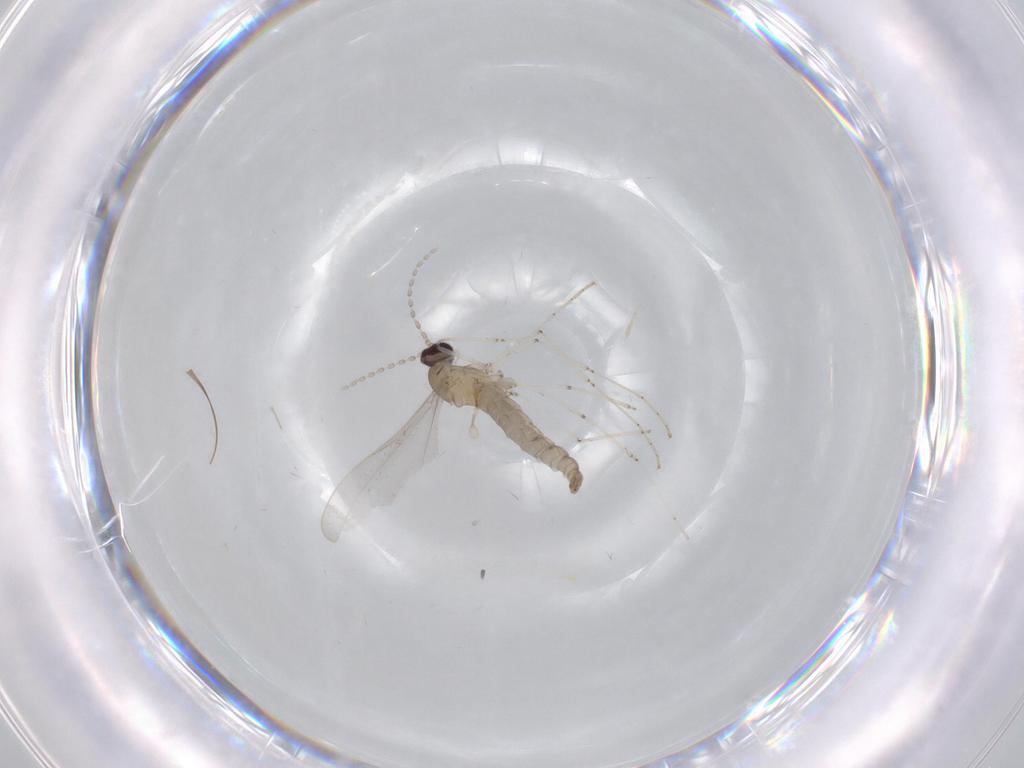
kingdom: Animalia
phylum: Arthropoda
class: Insecta
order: Diptera
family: Cecidomyiidae
